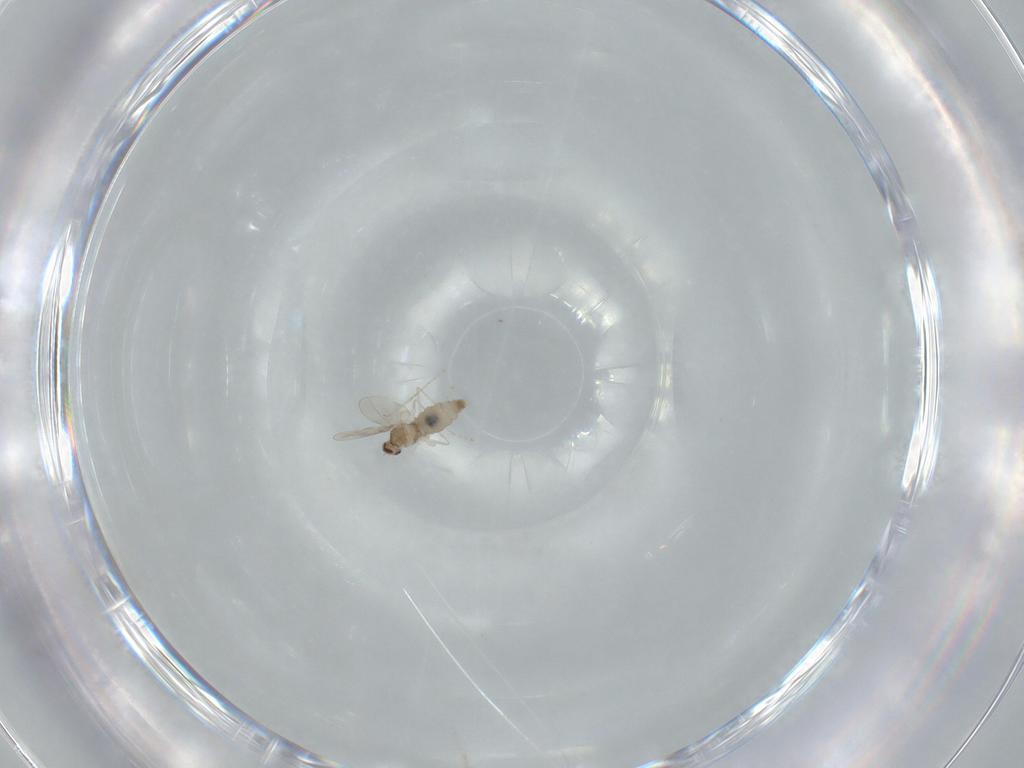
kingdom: Animalia
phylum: Arthropoda
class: Insecta
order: Diptera
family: Cecidomyiidae
